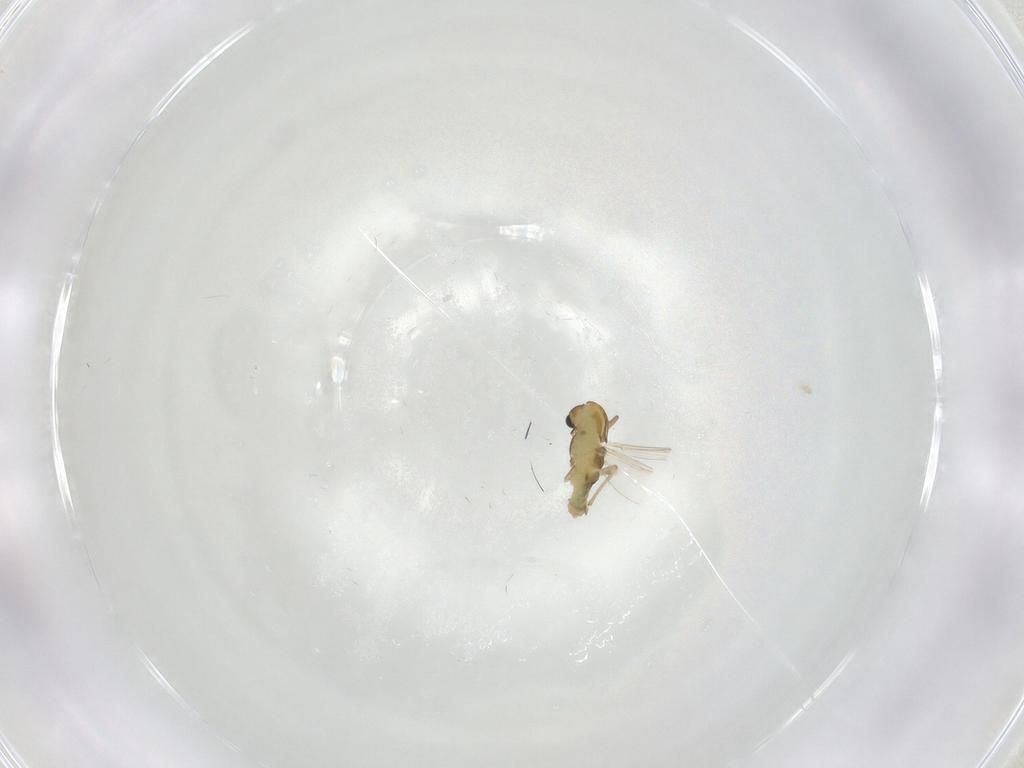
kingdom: Animalia
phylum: Arthropoda
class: Insecta
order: Diptera
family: Chironomidae
